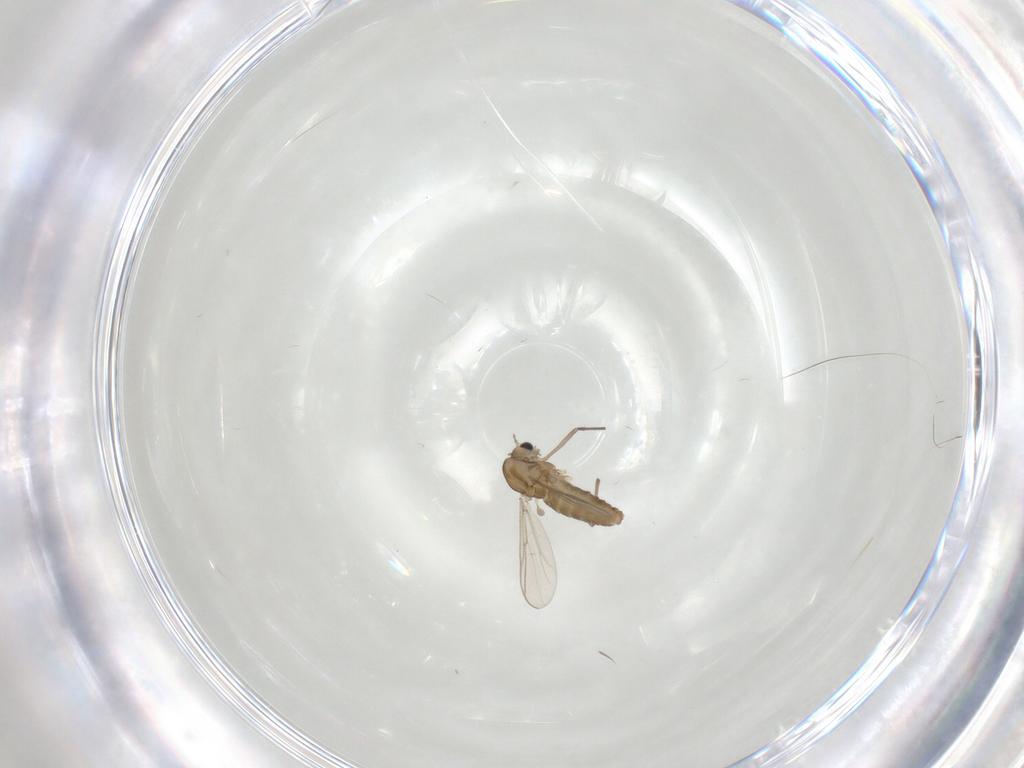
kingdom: Animalia
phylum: Arthropoda
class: Insecta
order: Diptera
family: Chironomidae
